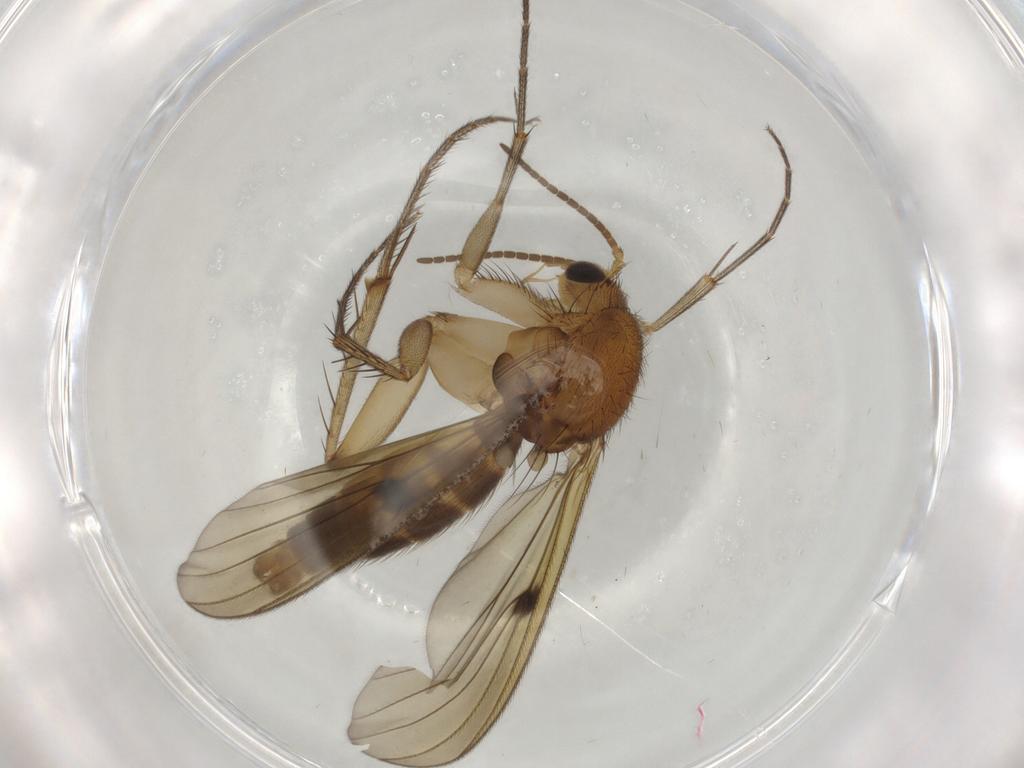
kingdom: Animalia
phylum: Arthropoda
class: Insecta
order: Diptera
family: Mycetophilidae
